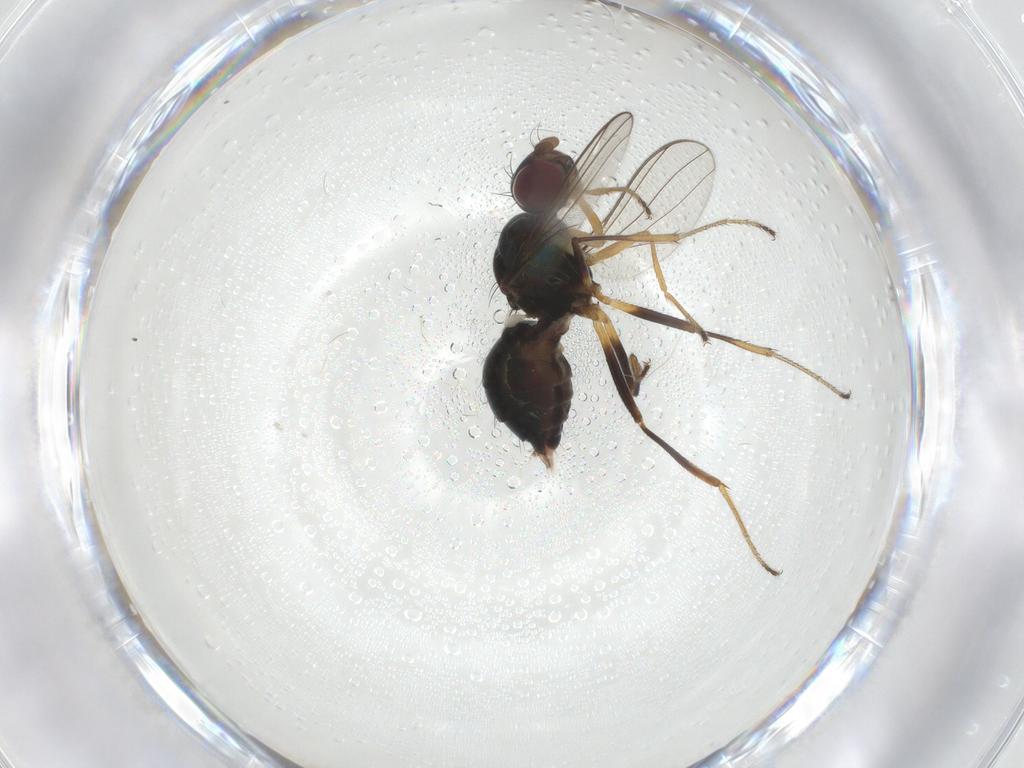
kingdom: Animalia
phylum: Arthropoda
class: Insecta
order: Diptera
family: Sepsidae
